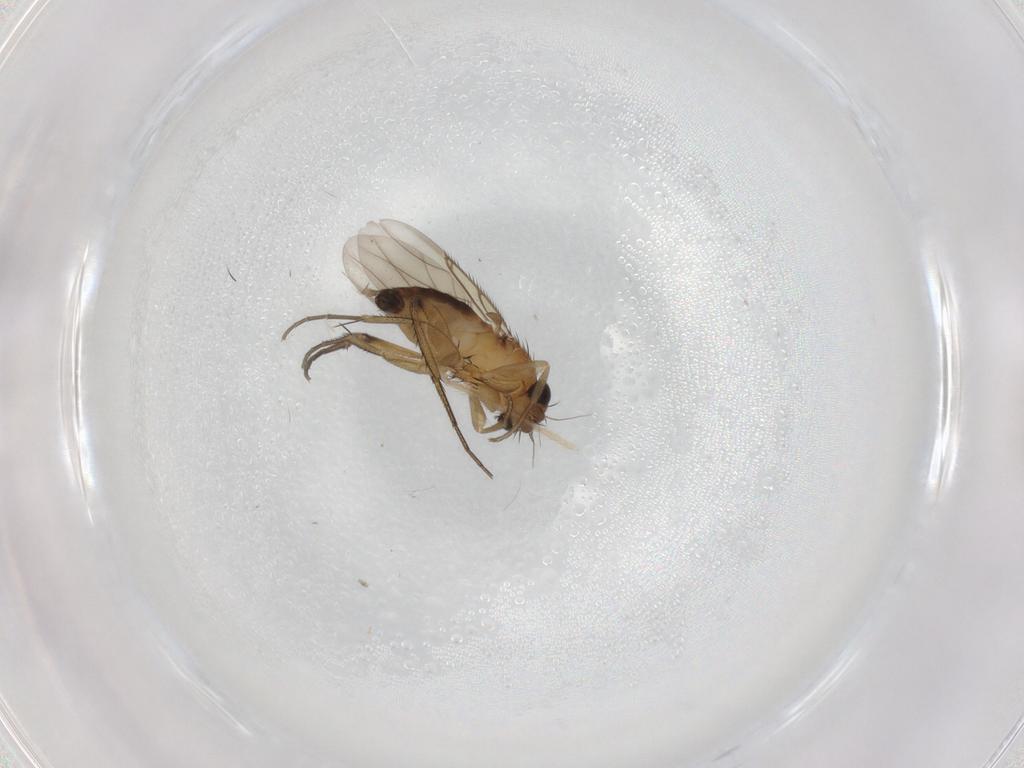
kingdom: Animalia
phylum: Arthropoda
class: Insecta
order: Diptera
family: Phoridae
